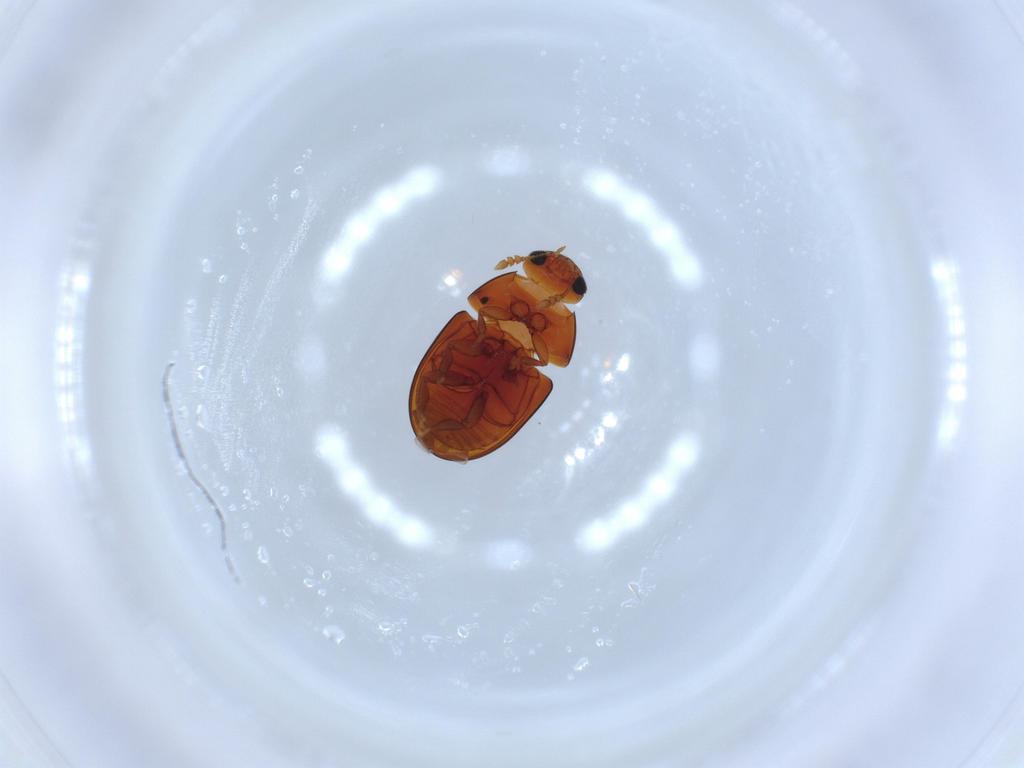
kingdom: Animalia
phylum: Arthropoda
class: Insecta
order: Coleoptera
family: Phalacridae
